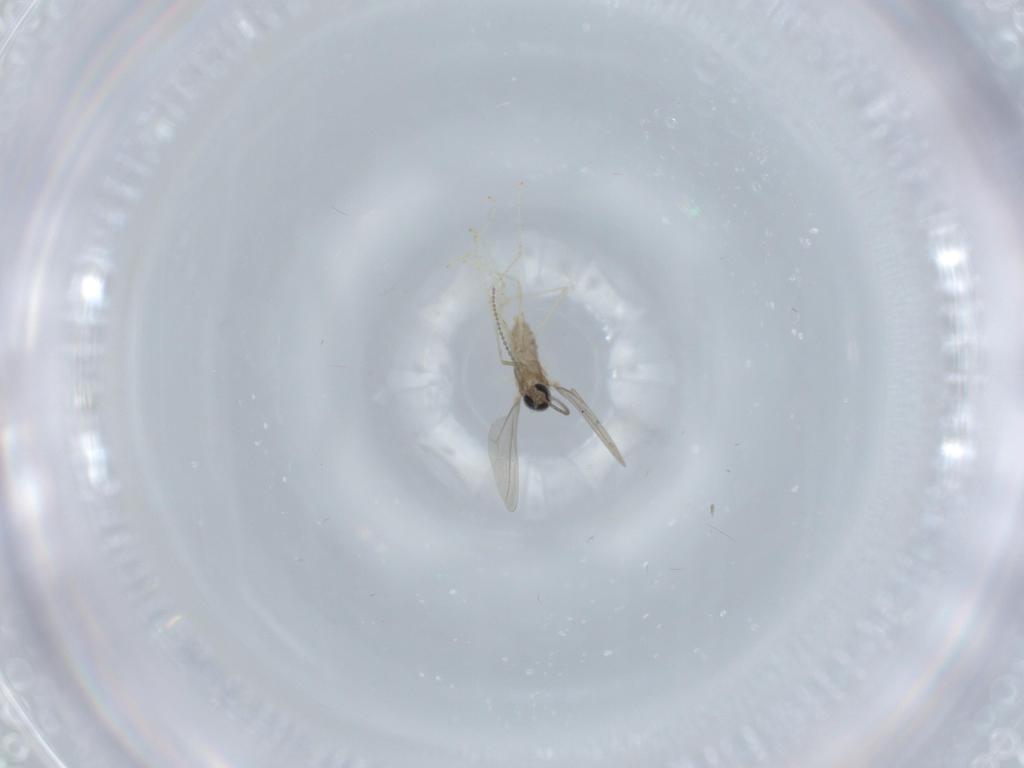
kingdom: Animalia
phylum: Arthropoda
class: Insecta
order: Diptera
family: Cecidomyiidae
